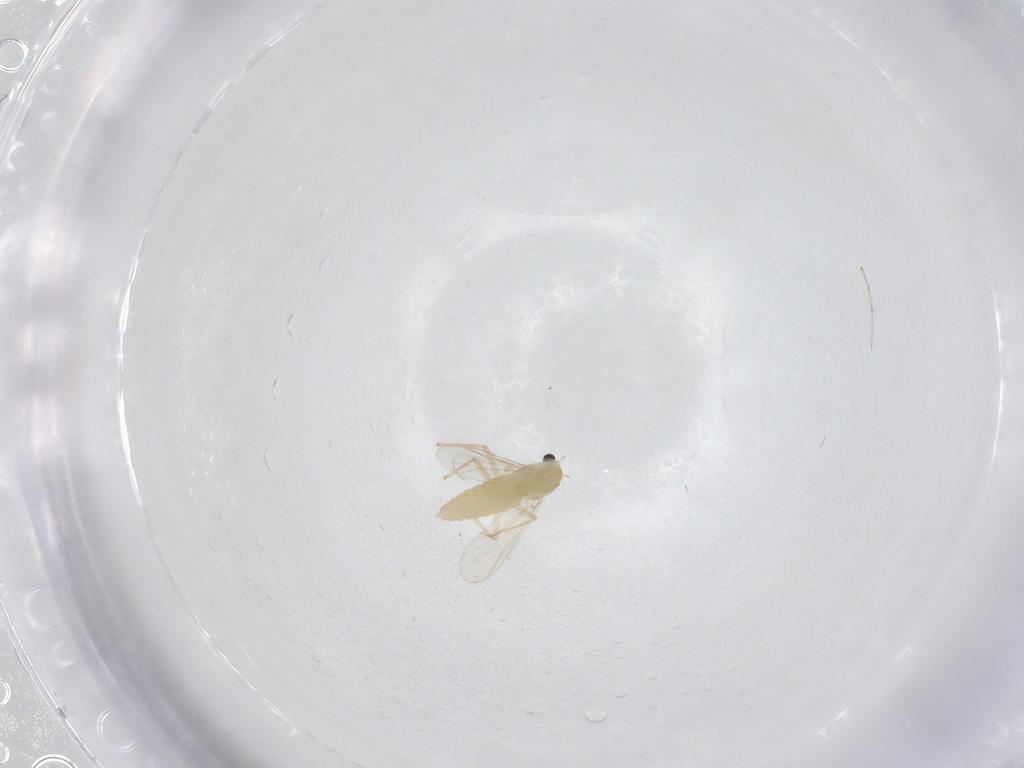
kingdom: Animalia
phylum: Arthropoda
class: Insecta
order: Diptera
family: Chironomidae
